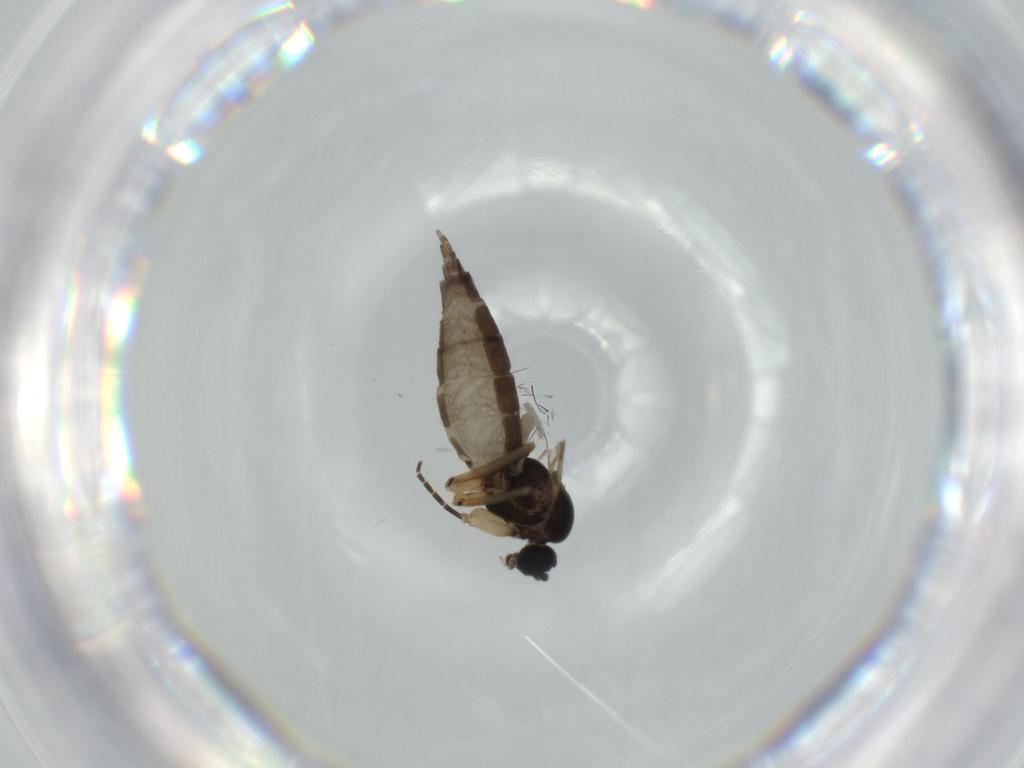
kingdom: Animalia
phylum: Arthropoda
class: Insecta
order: Diptera
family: Sciaridae
